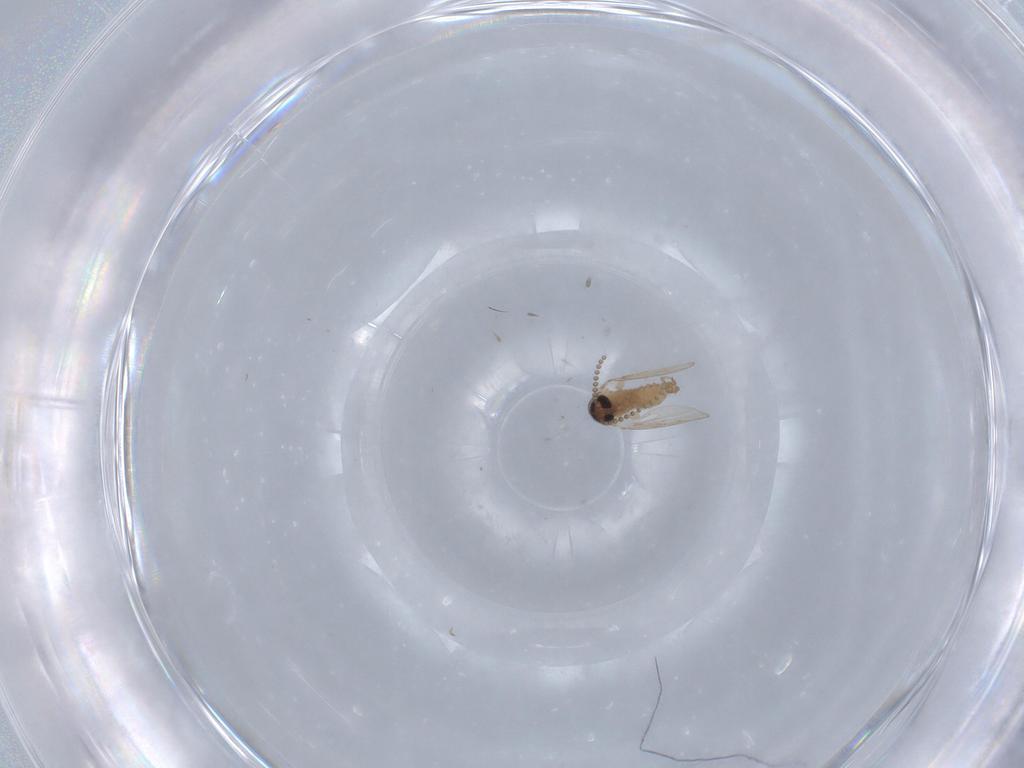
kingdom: Animalia
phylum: Arthropoda
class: Insecta
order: Diptera
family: Psychodidae
